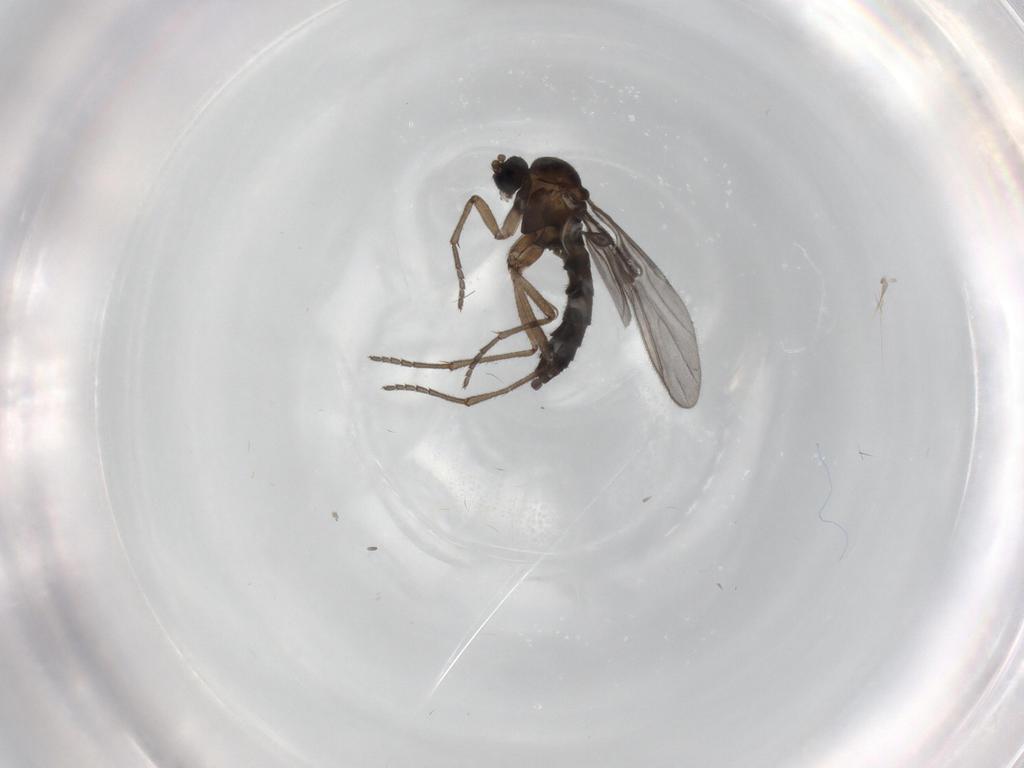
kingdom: Animalia
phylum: Arthropoda
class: Insecta
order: Diptera
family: Sciaridae
